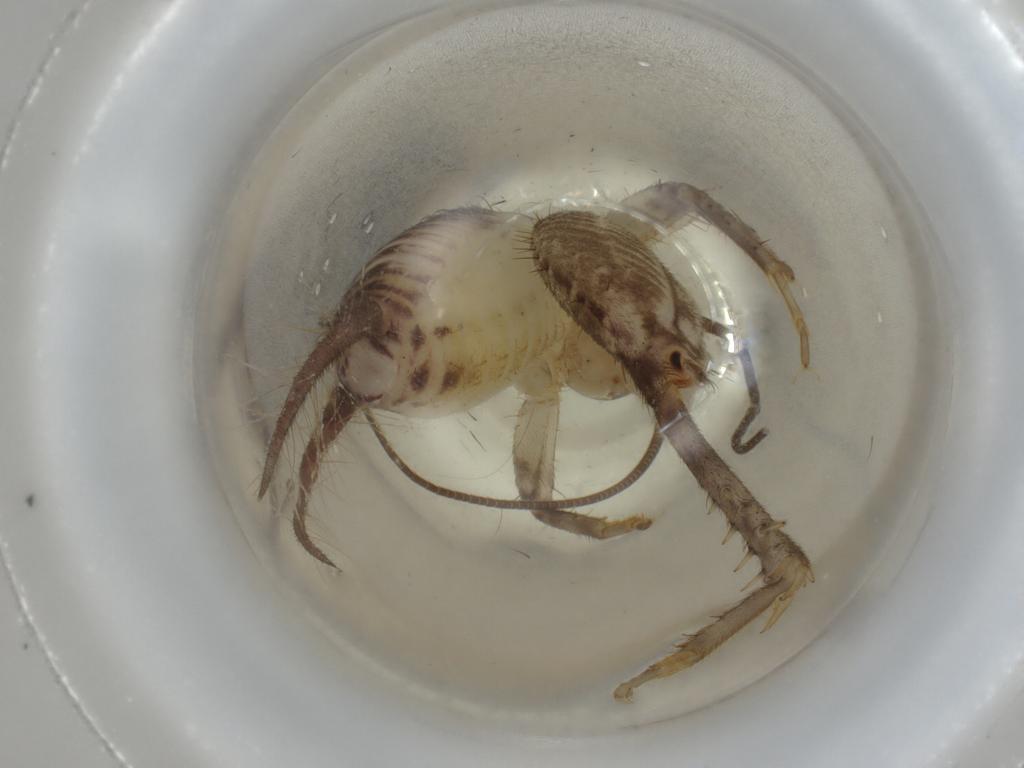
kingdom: Animalia
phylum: Arthropoda
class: Insecta
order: Orthoptera
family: Gryllidae
